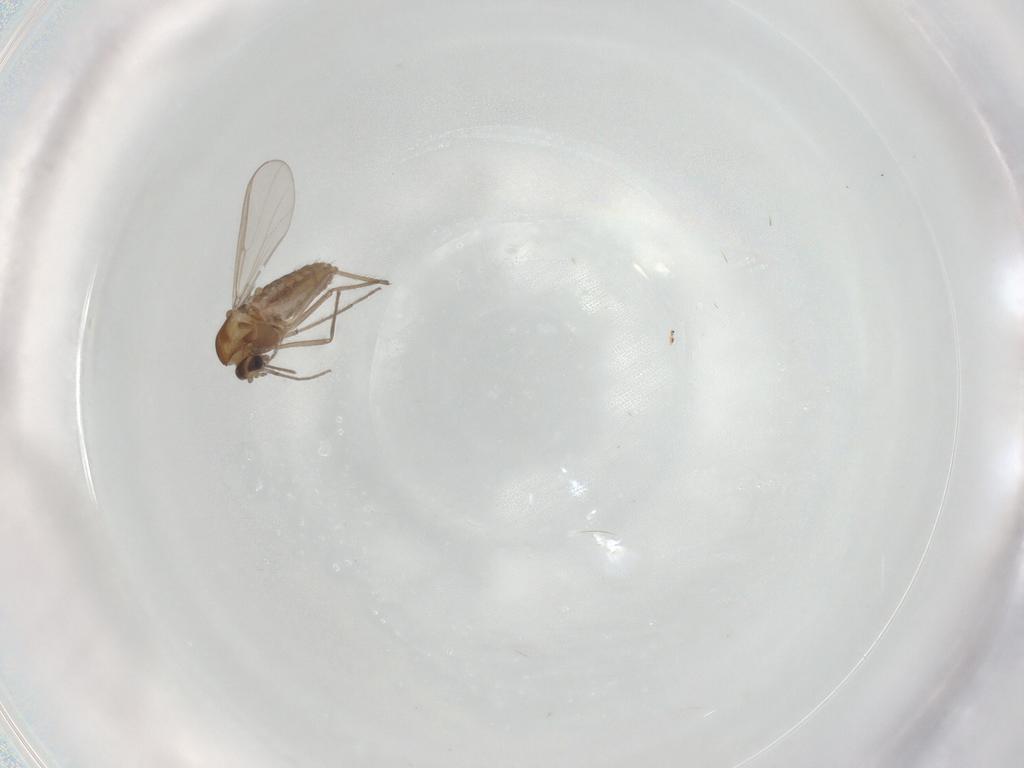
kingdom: Animalia
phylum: Arthropoda
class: Insecta
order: Diptera
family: Chironomidae
